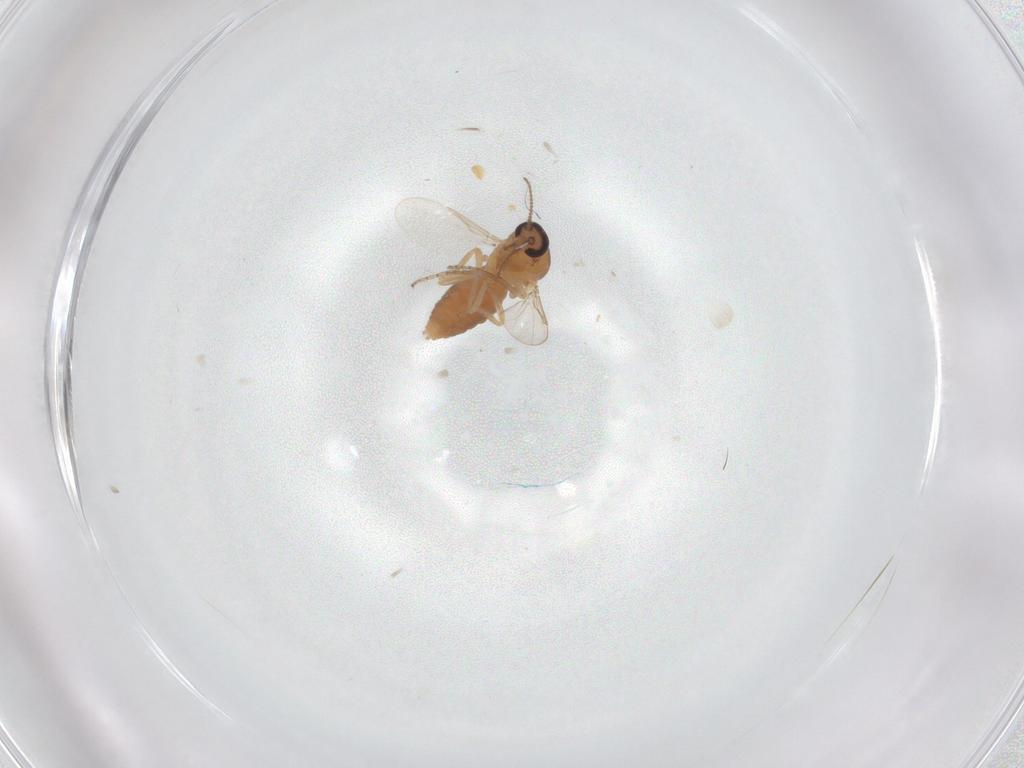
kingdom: Animalia
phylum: Arthropoda
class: Insecta
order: Diptera
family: Ceratopogonidae
